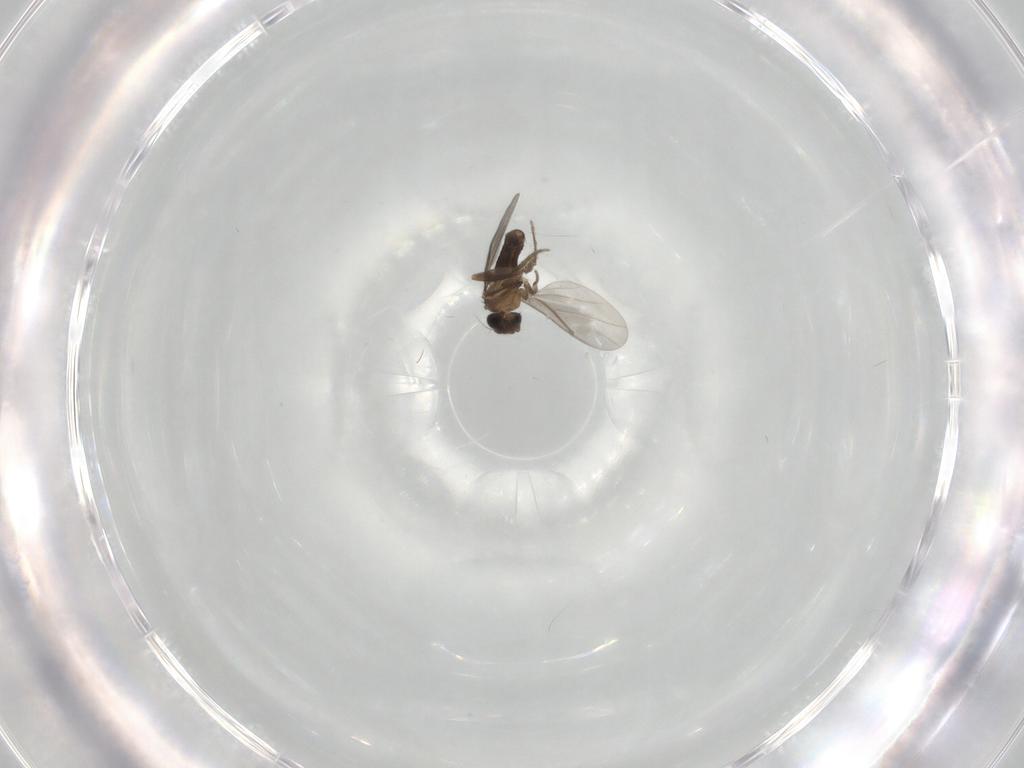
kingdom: Animalia
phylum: Arthropoda
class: Insecta
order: Diptera
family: Tabanidae
